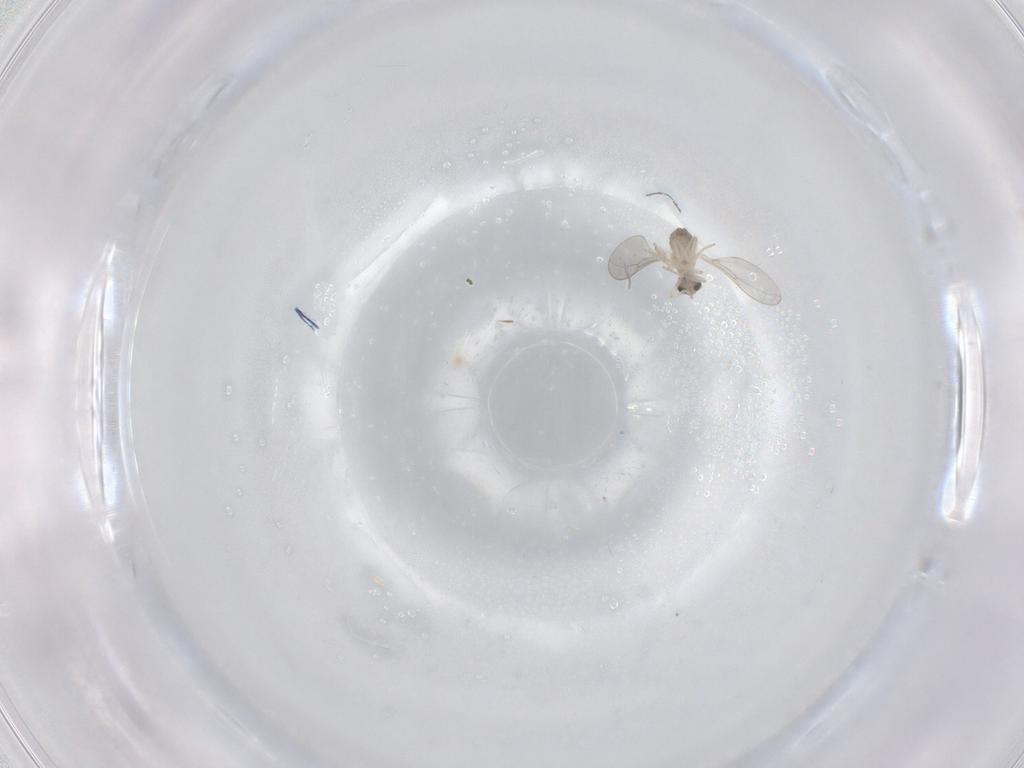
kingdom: Animalia
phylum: Arthropoda
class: Insecta
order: Diptera
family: Cecidomyiidae
